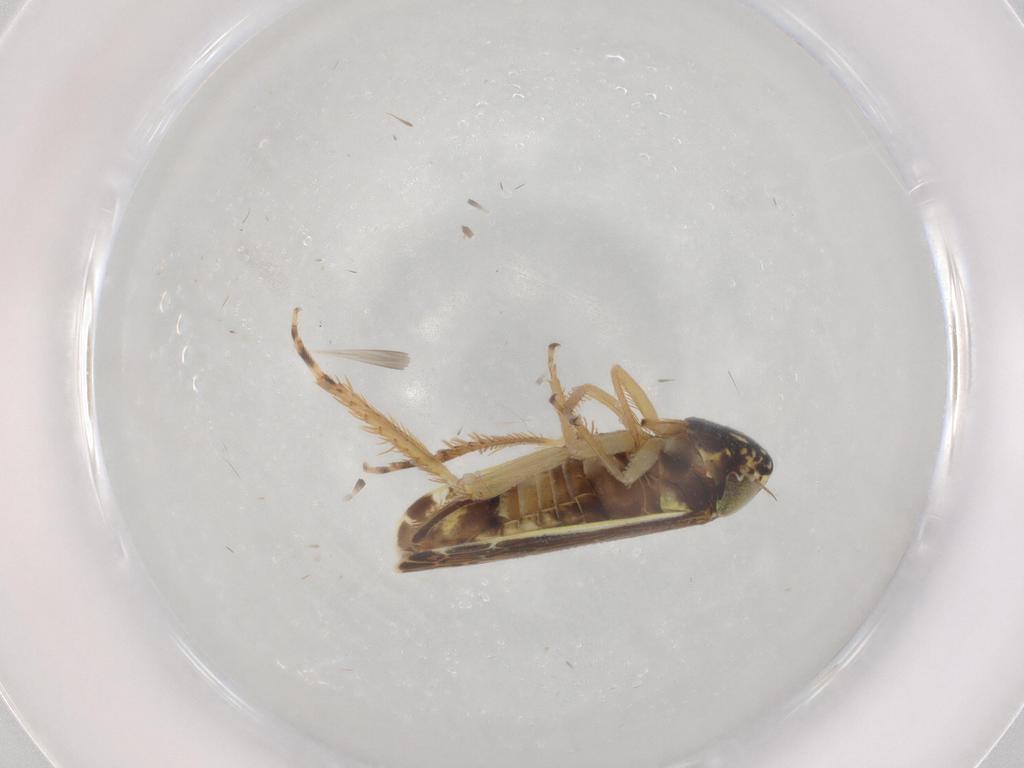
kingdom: Animalia
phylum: Arthropoda
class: Insecta
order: Hemiptera
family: Cicadellidae
